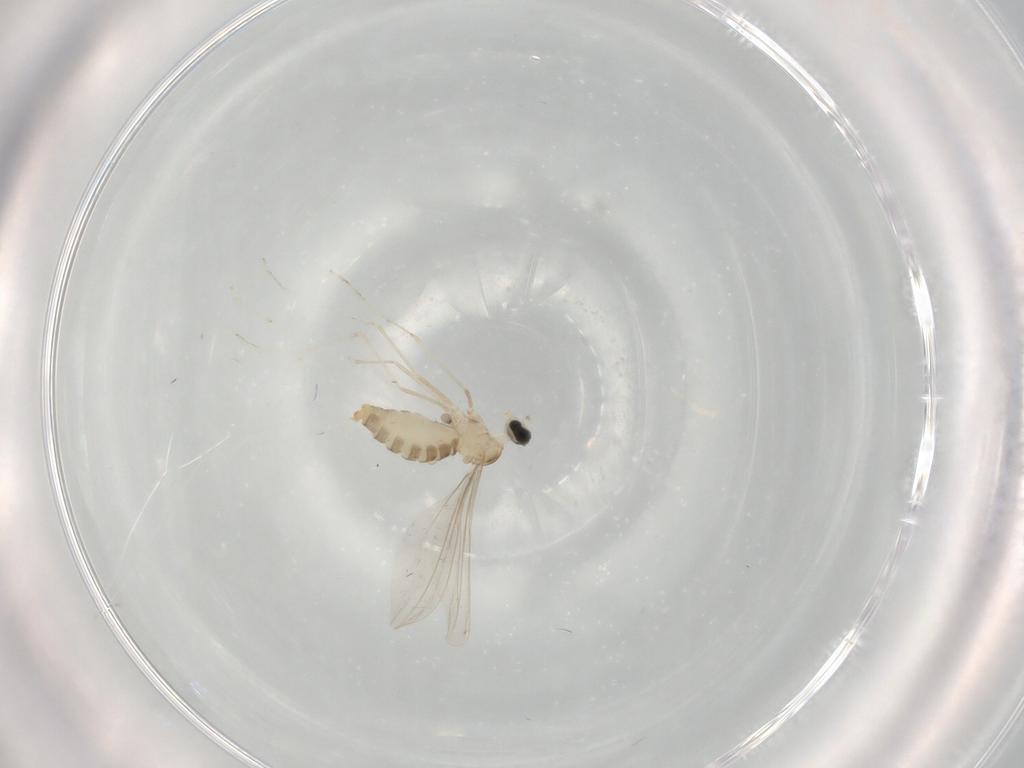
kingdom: Animalia
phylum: Arthropoda
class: Insecta
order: Diptera
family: Cecidomyiidae
